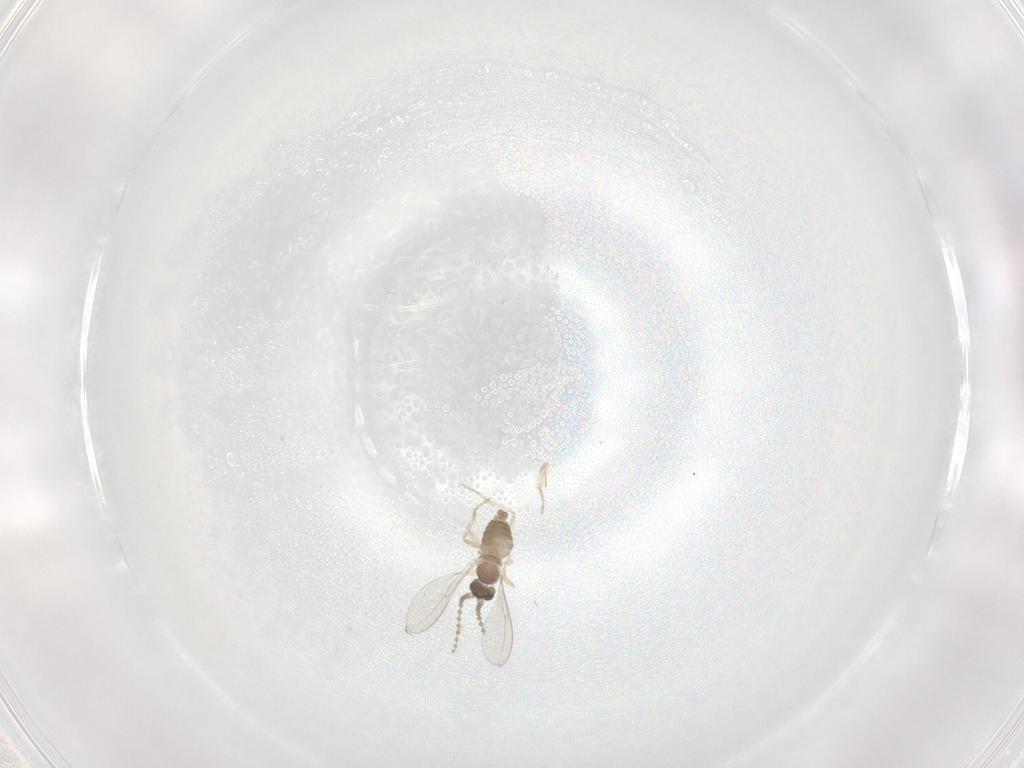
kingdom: Animalia
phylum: Arthropoda
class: Insecta
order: Diptera
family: Cecidomyiidae
